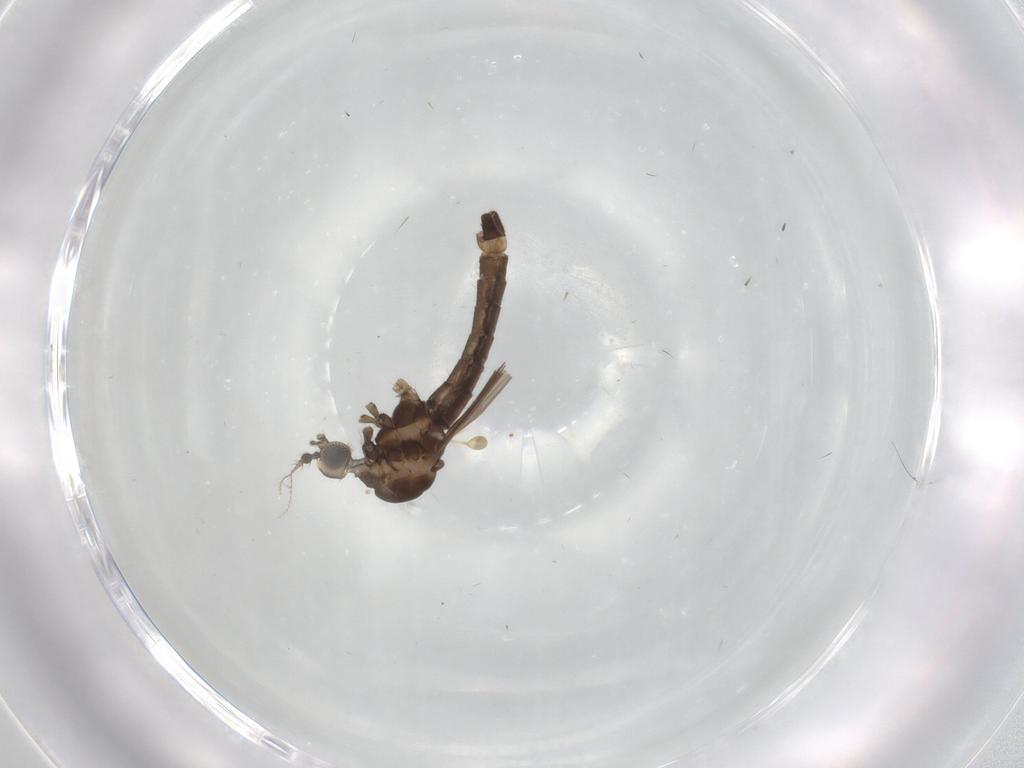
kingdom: Animalia
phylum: Arthropoda
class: Insecta
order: Diptera
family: Limoniidae
